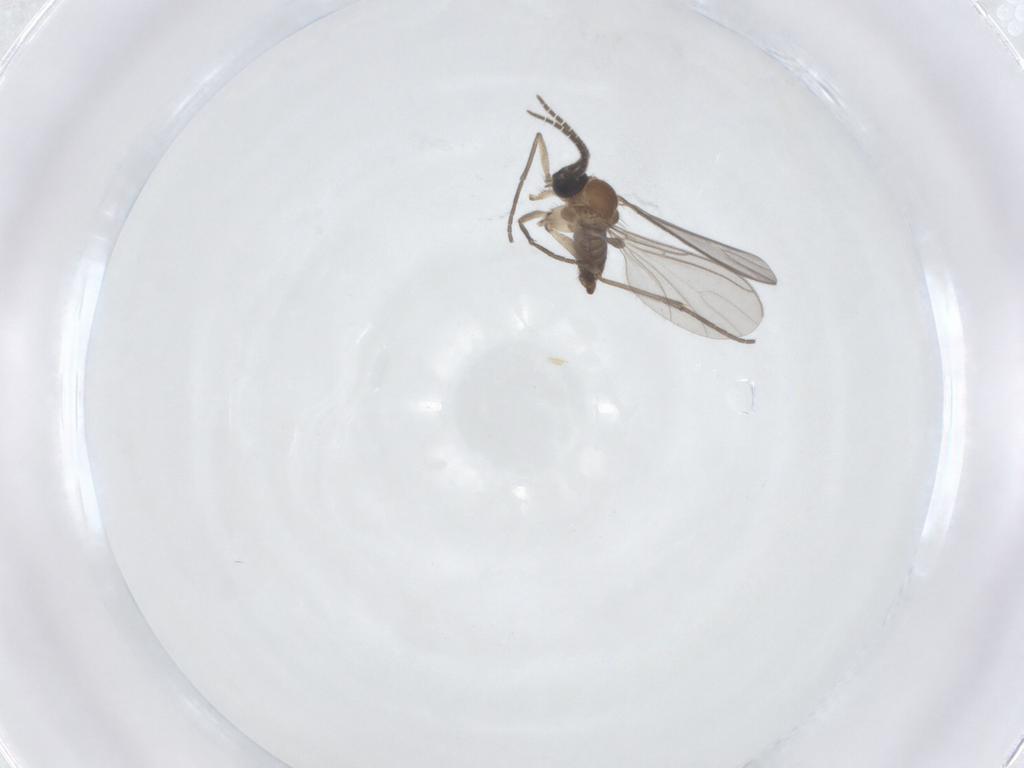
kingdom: Animalia
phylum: Arthropoda
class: Insecta
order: Diptera
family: Sciaridae
